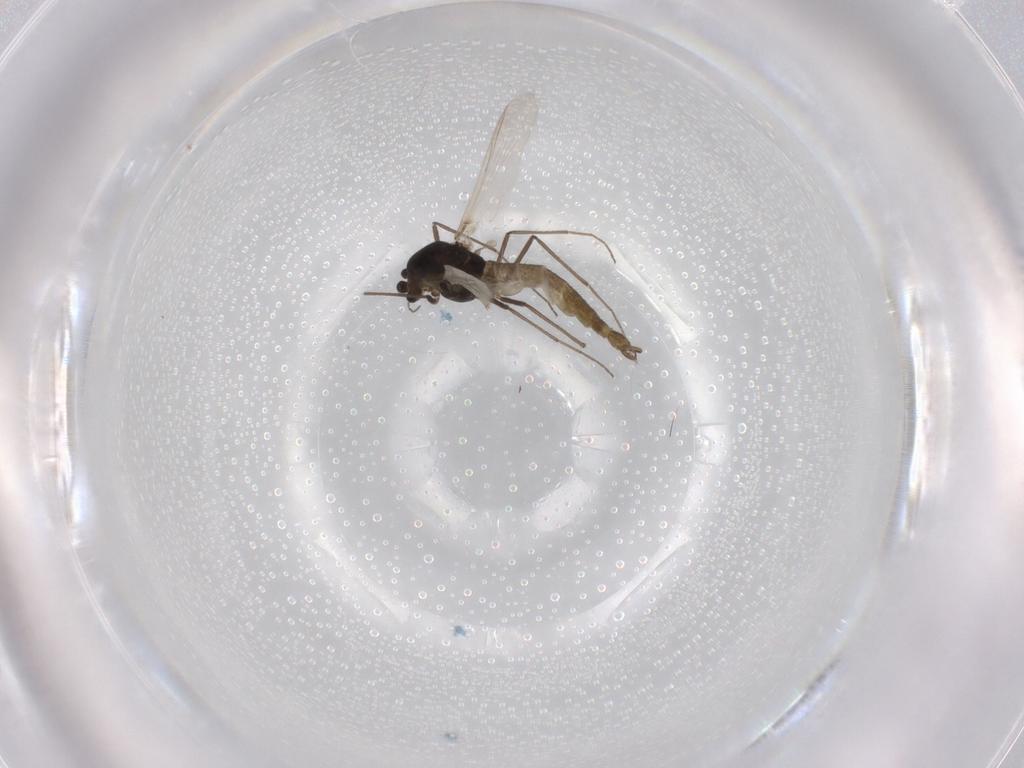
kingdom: Animalia
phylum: Arthropoda
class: Insecta
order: Diptera
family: Chironomidae
